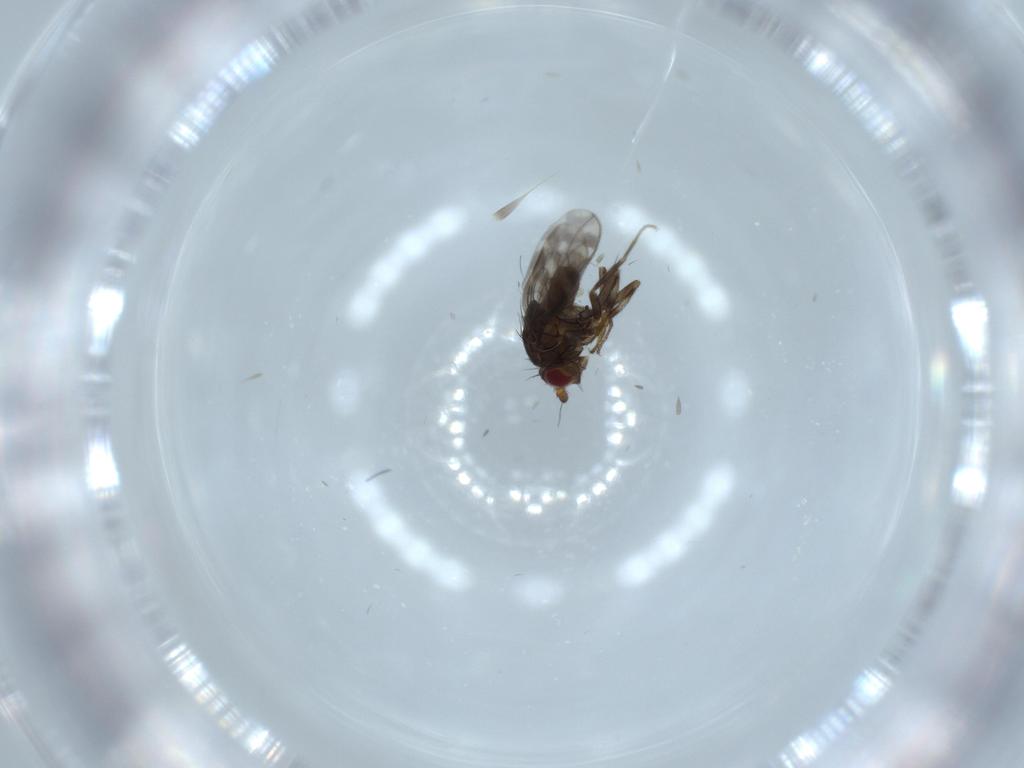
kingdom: Animalia
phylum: Arthropoda
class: Insecta
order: Diptera
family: Sphaeroceridae
